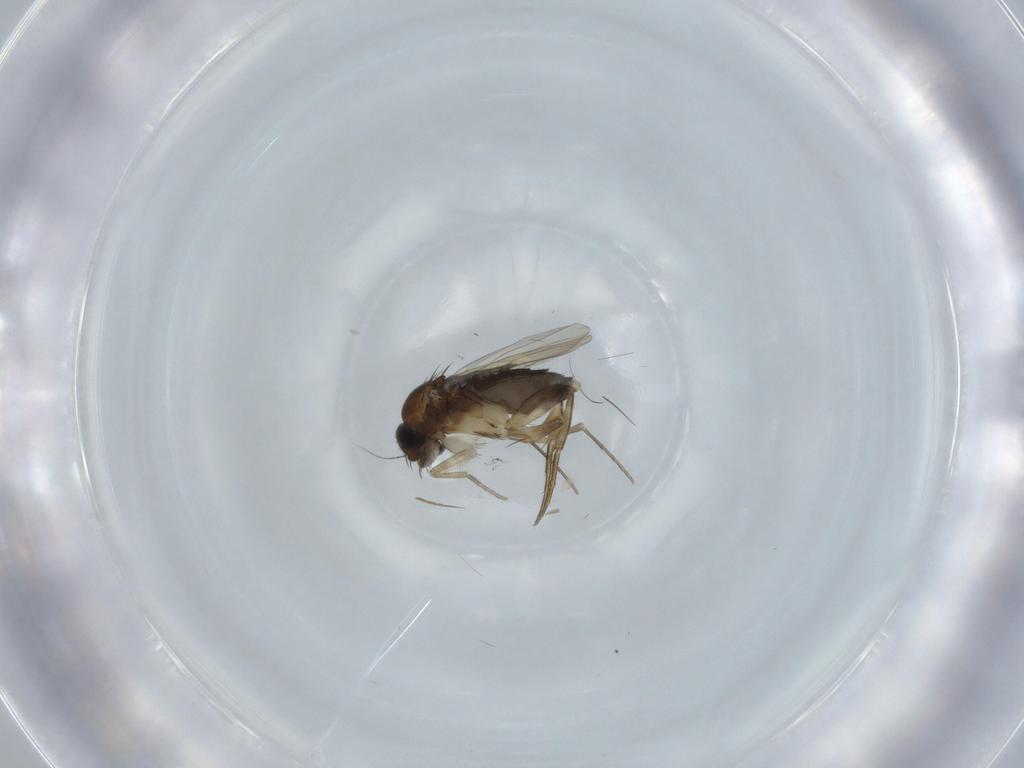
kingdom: Animalia
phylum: Arthropoda
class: Insecta
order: Diptera
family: Phoridae
